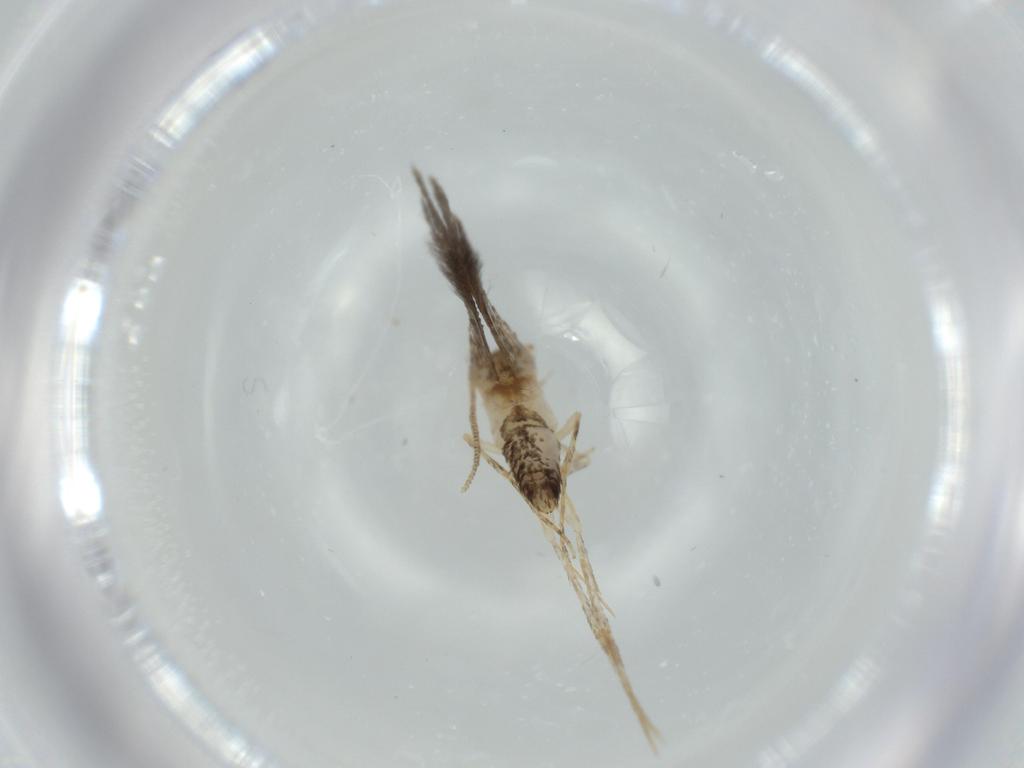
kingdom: Animalia
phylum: Arthropoda
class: Insecta
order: Lepidoptera
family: Tineidae
